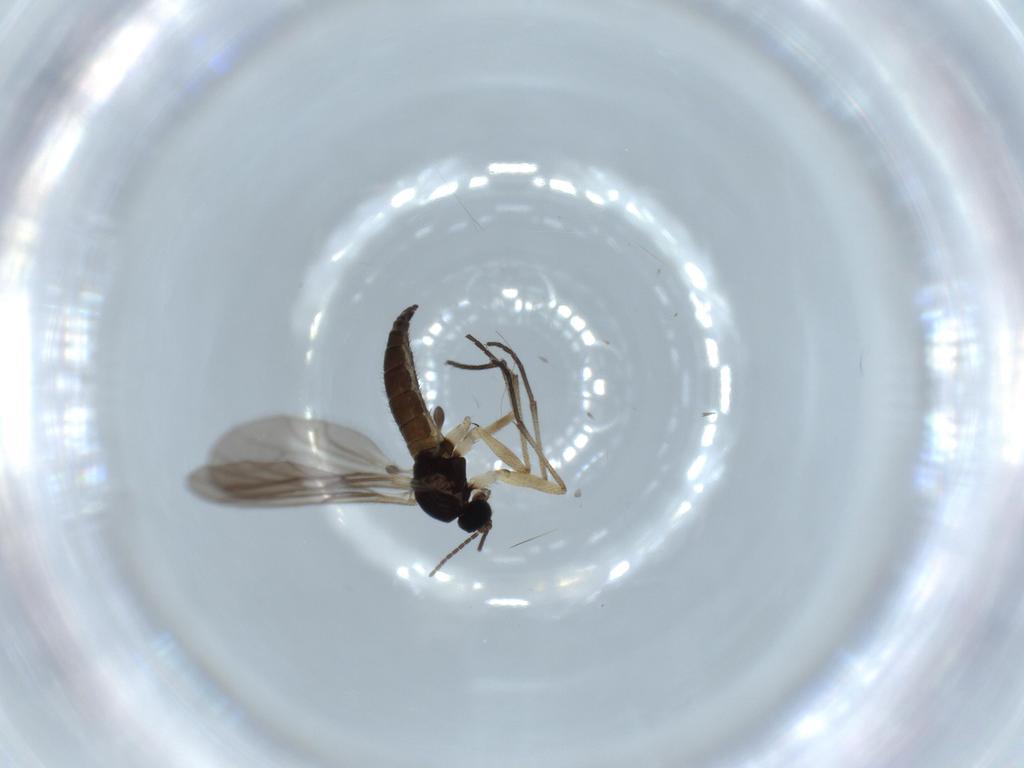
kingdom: Animalia
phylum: Arthropoda
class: Insecta
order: Diptera
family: Sciaridae
